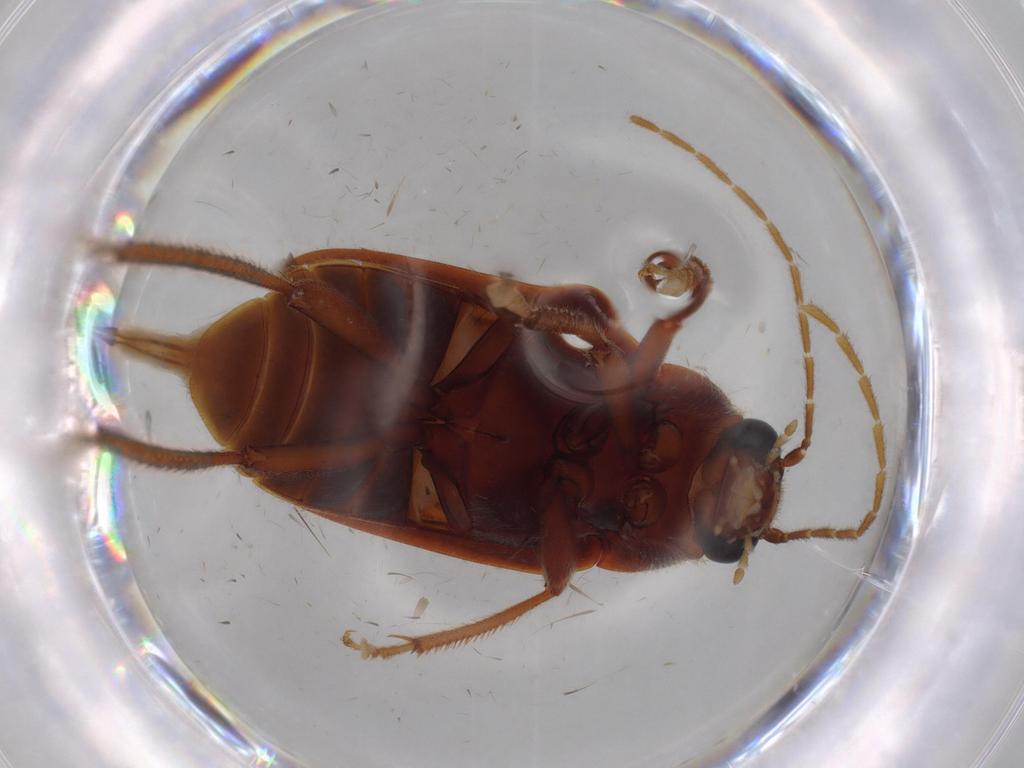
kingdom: Animalia
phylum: Arthropoda
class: Insecta
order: Coleoptera
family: Ptilodactylidae
